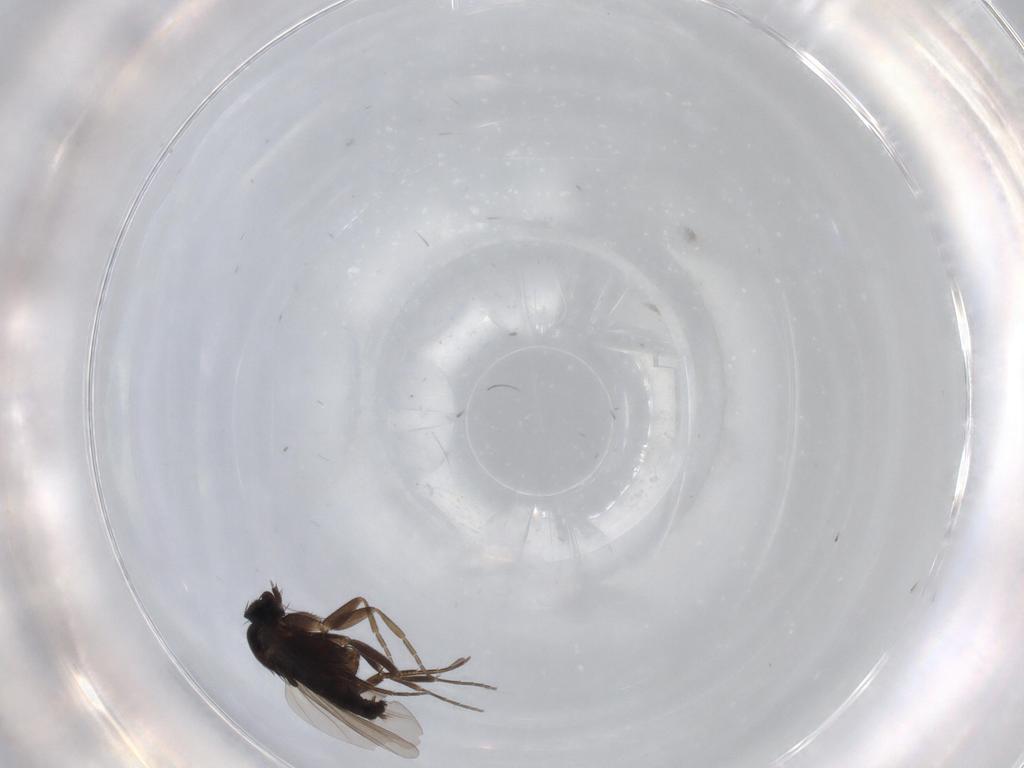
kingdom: Animalia
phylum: Arthropoda
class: Insecta
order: Diptera
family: Phoridae
